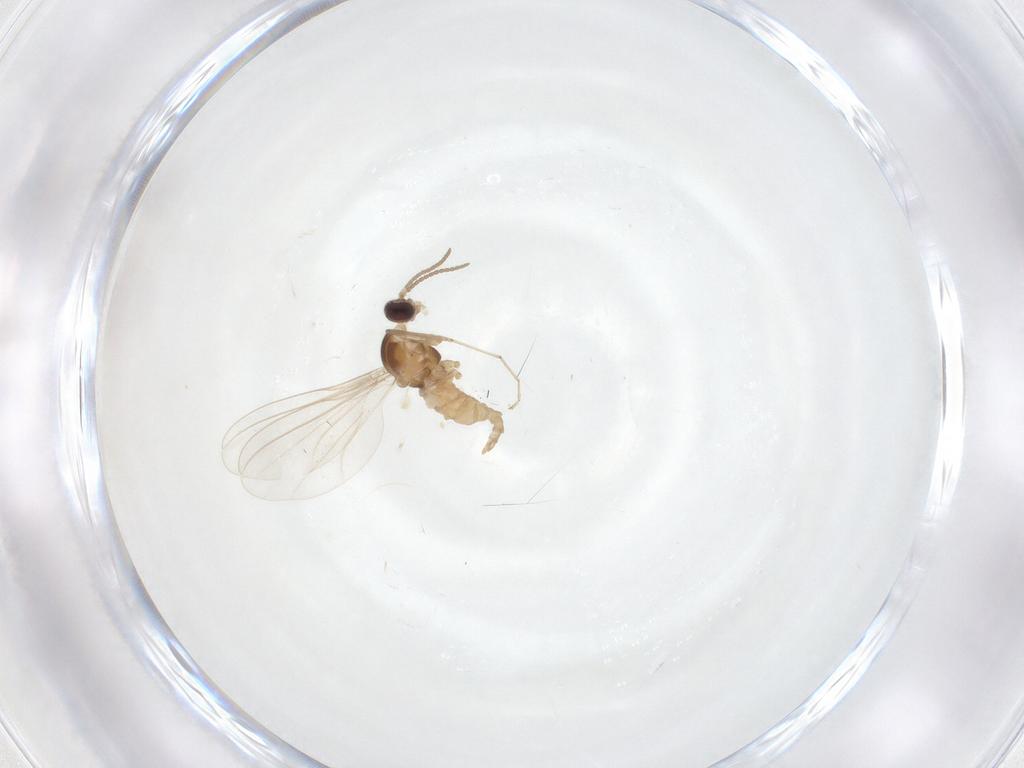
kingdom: Animalia
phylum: Arthropoda
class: Insecta
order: Diptera
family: Cecidomyiidae
